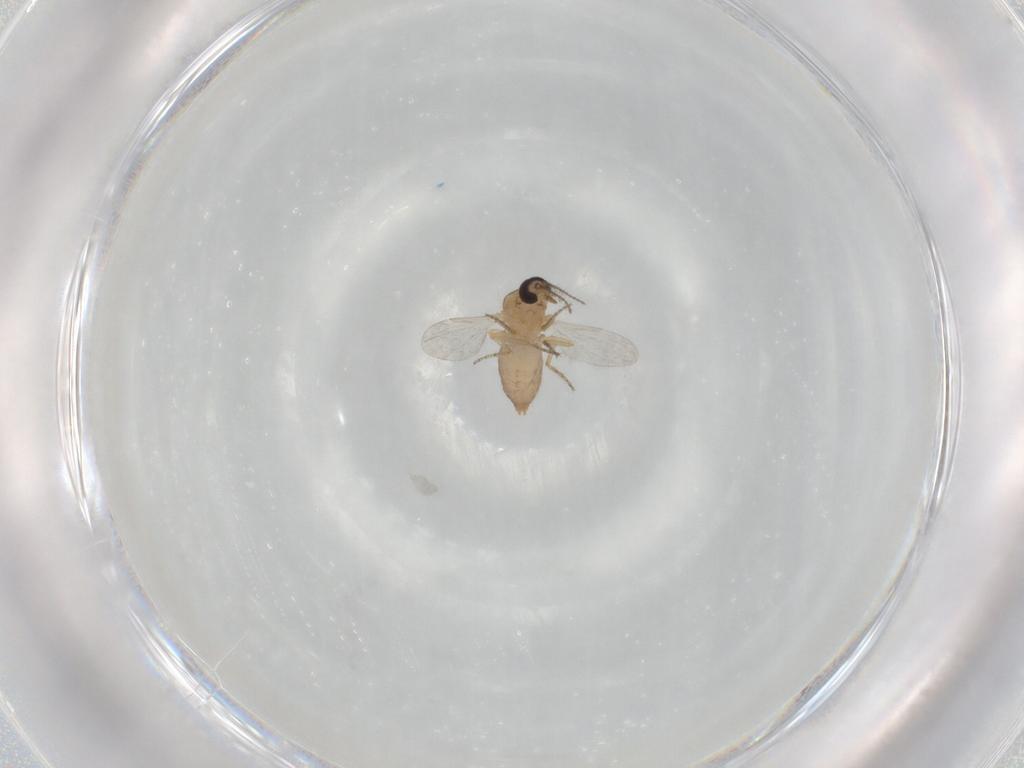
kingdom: Animalia
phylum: Arthropoda
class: Insecta
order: Diptera
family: Ceratopogonidae
